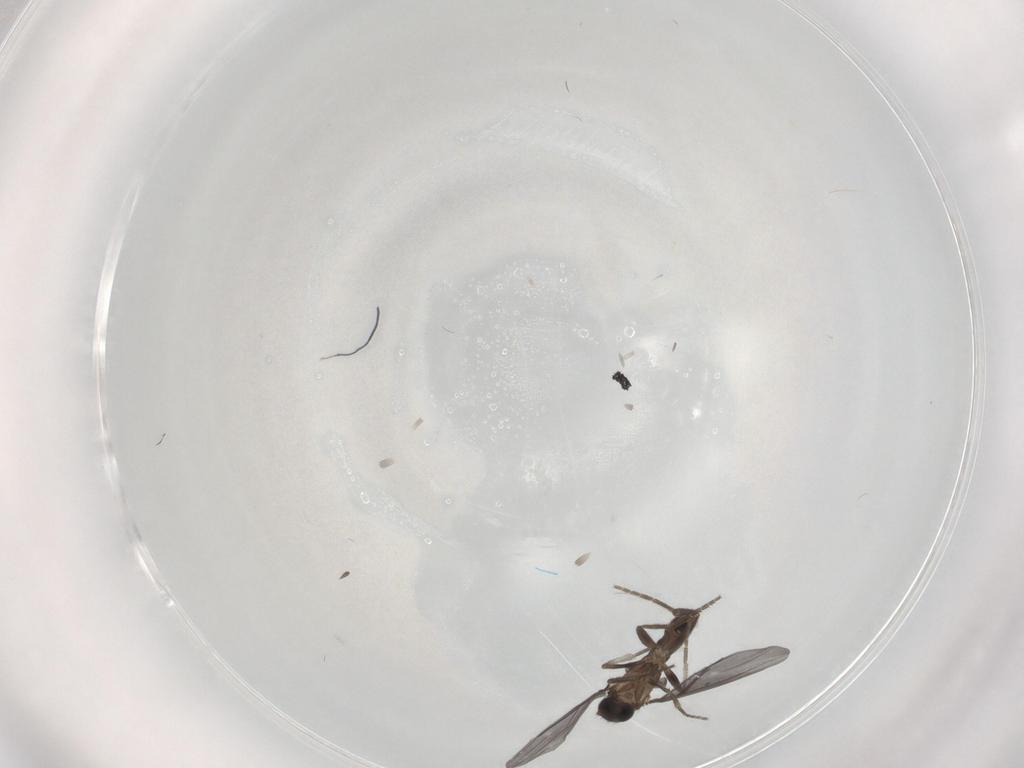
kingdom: Animalia
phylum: Arthropoda
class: Insecta
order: Diptera
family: Phoridae
